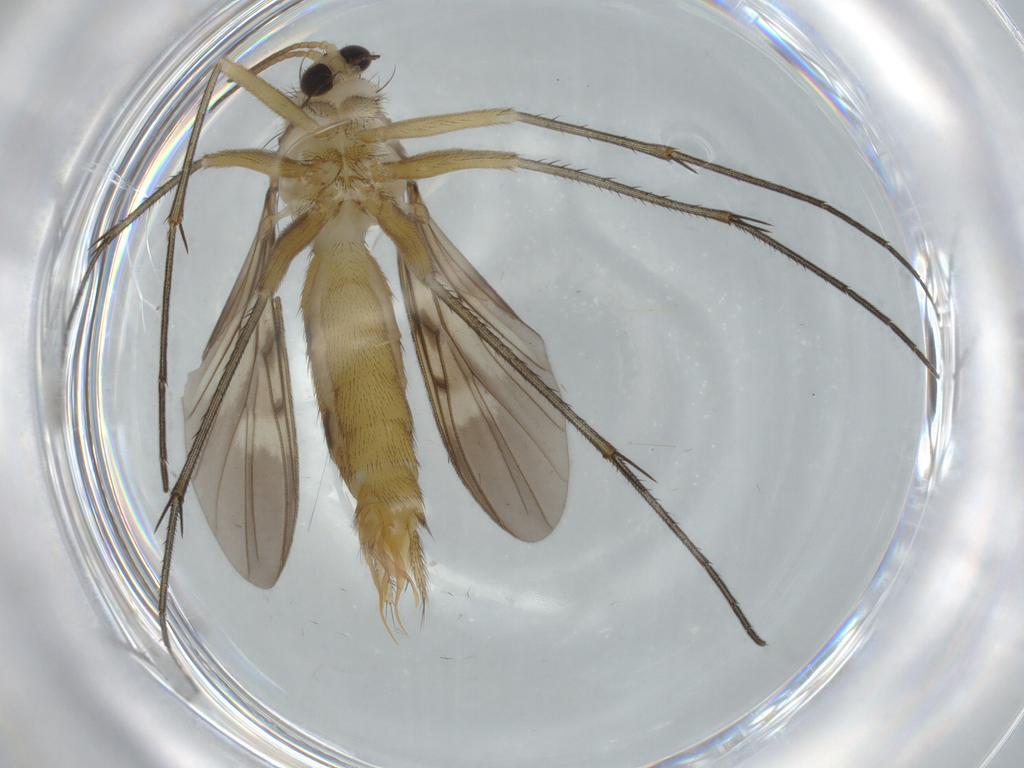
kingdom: Animalia
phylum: Arthropoda
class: Insecta
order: Diptera
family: Mycetophilidae
